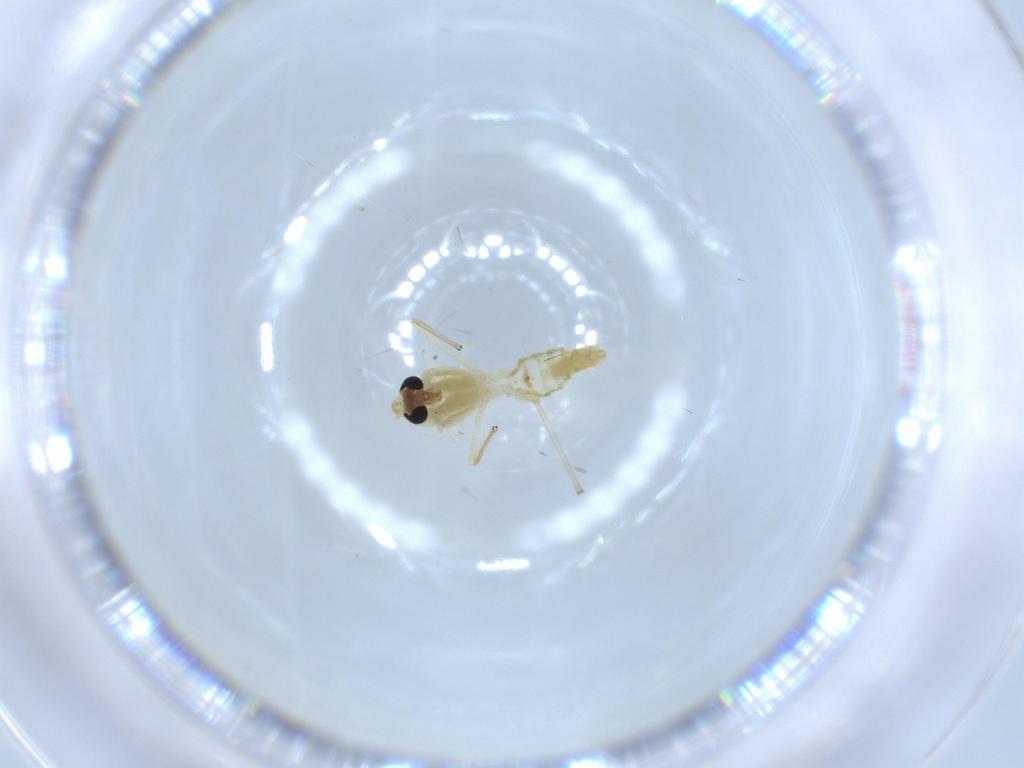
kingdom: Animalia
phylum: Arthropoda
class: Insecta
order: Diptera
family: Chironomidae
